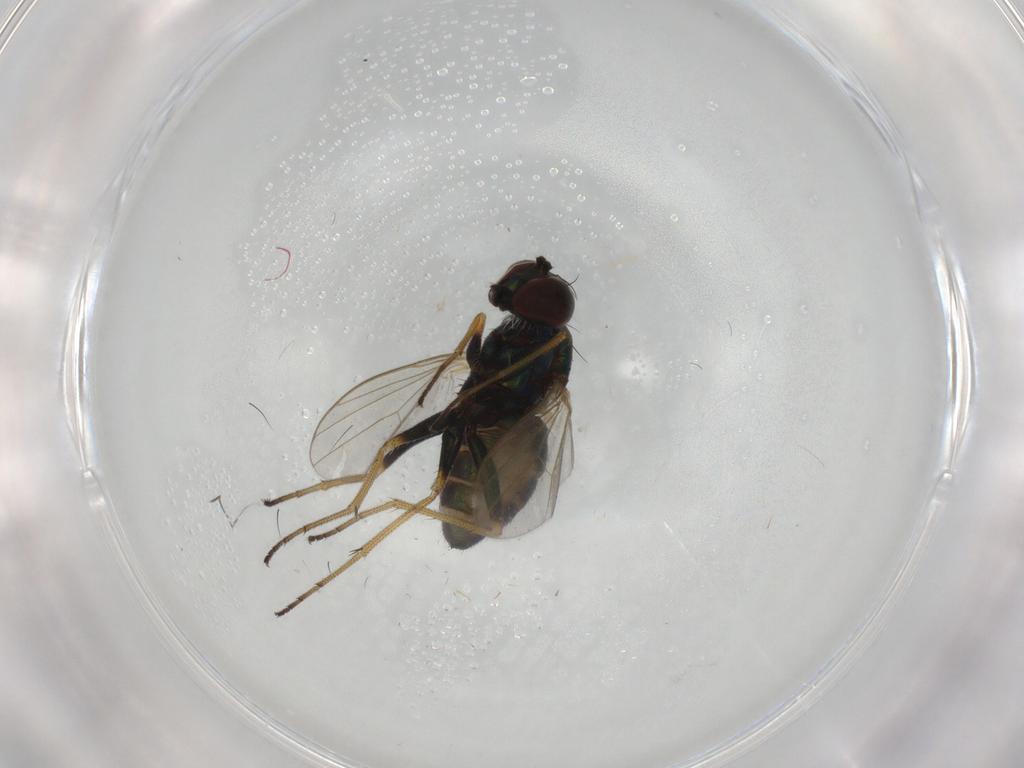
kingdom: Animalia
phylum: Arthropoda
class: Insecta
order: Diptera
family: Dolichopodidae
